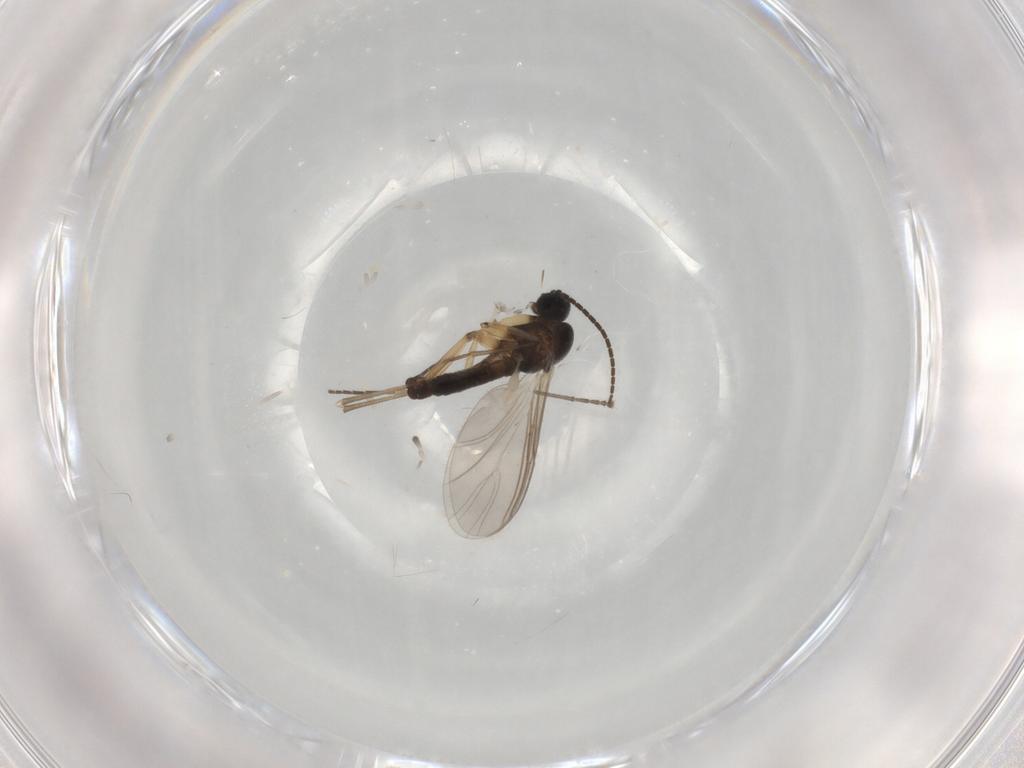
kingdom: Animalia
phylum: Arthropoda
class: Insecta
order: Diptera
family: Sciaridae
